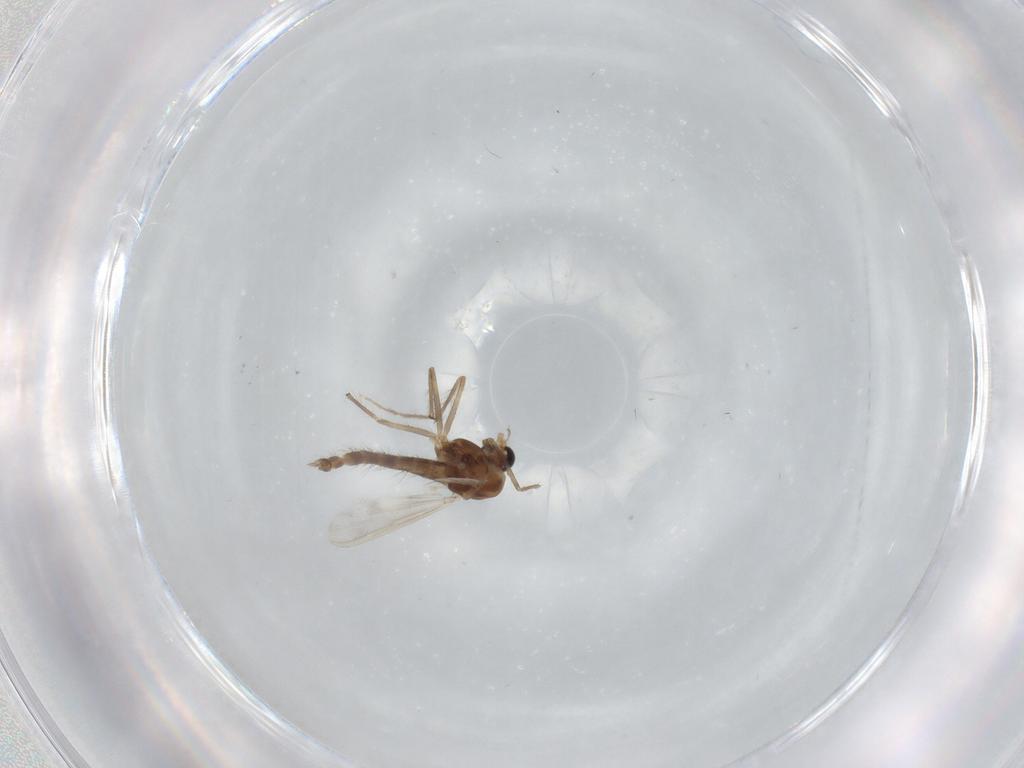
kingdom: Animalia
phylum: Arthropoda
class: Insecta
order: Diptera
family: Chironomidae
